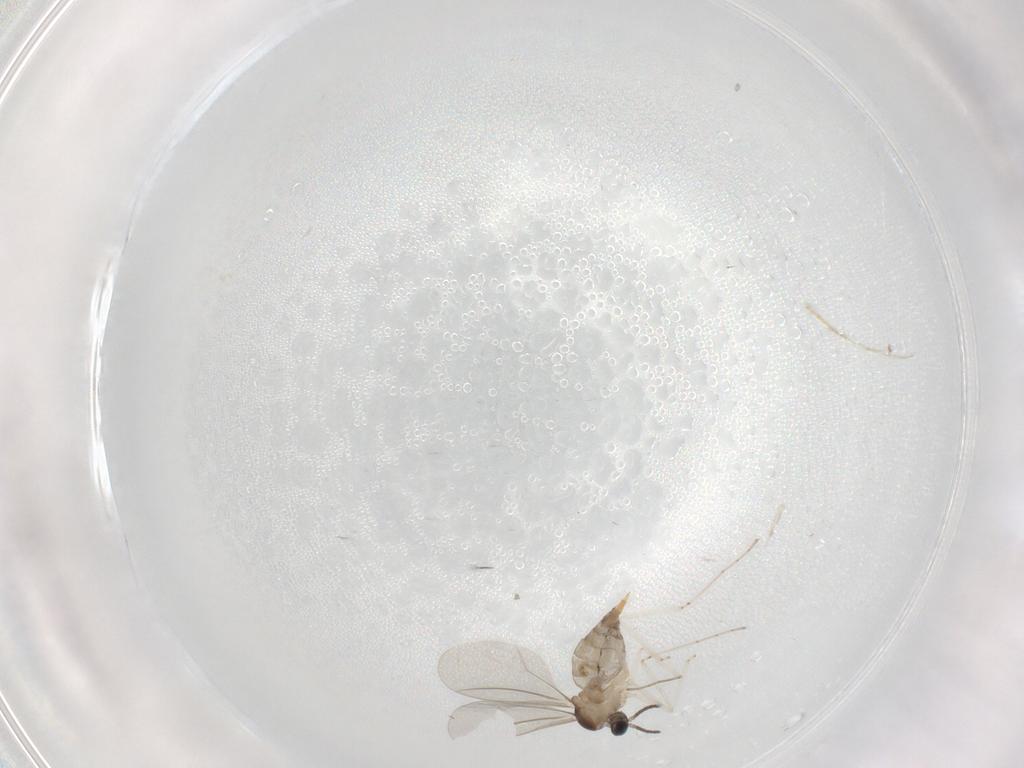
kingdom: Animalia
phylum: Arthropoda
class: Insecta
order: Diptera
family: Cecidomyiidae
